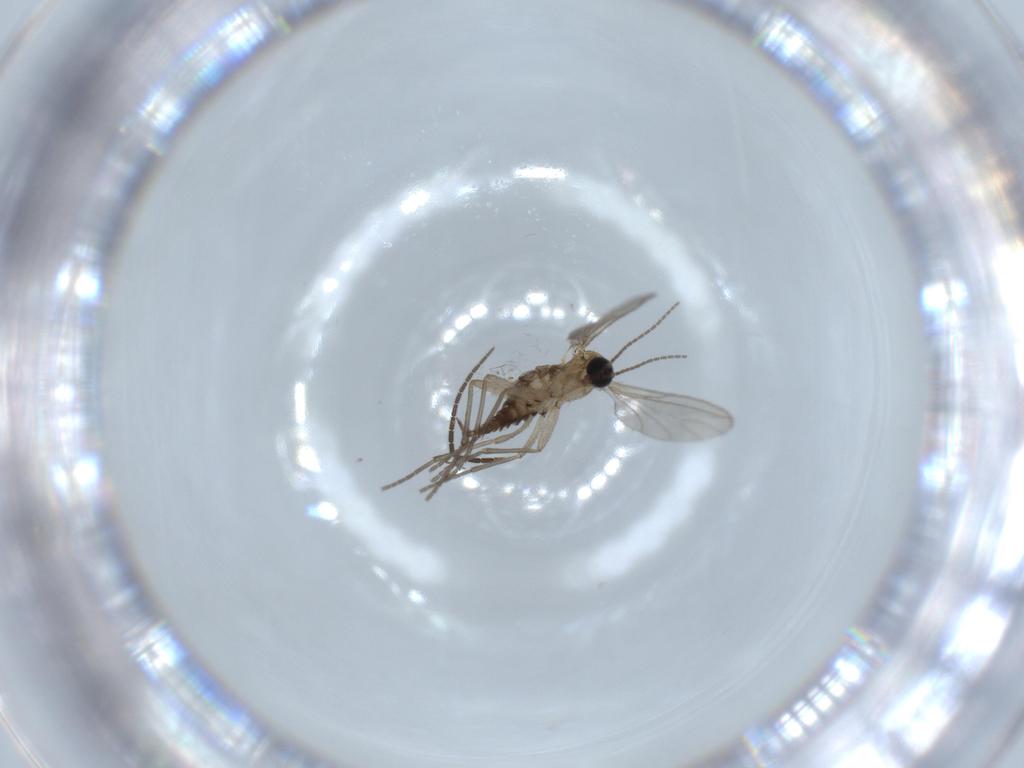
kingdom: Animalia
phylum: Arthropoda
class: Insecta
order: Diptera
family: Sciaridae
